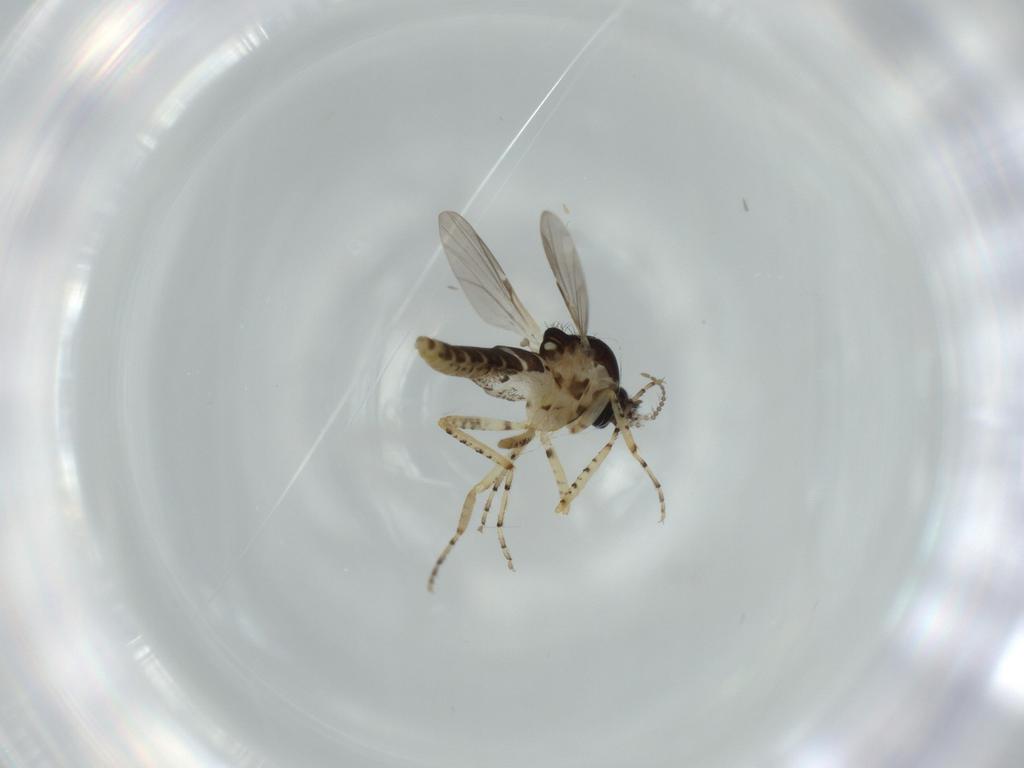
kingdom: Animalia
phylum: Arthropoda
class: Insecta
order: Diptera
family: Ceratopogonidae
